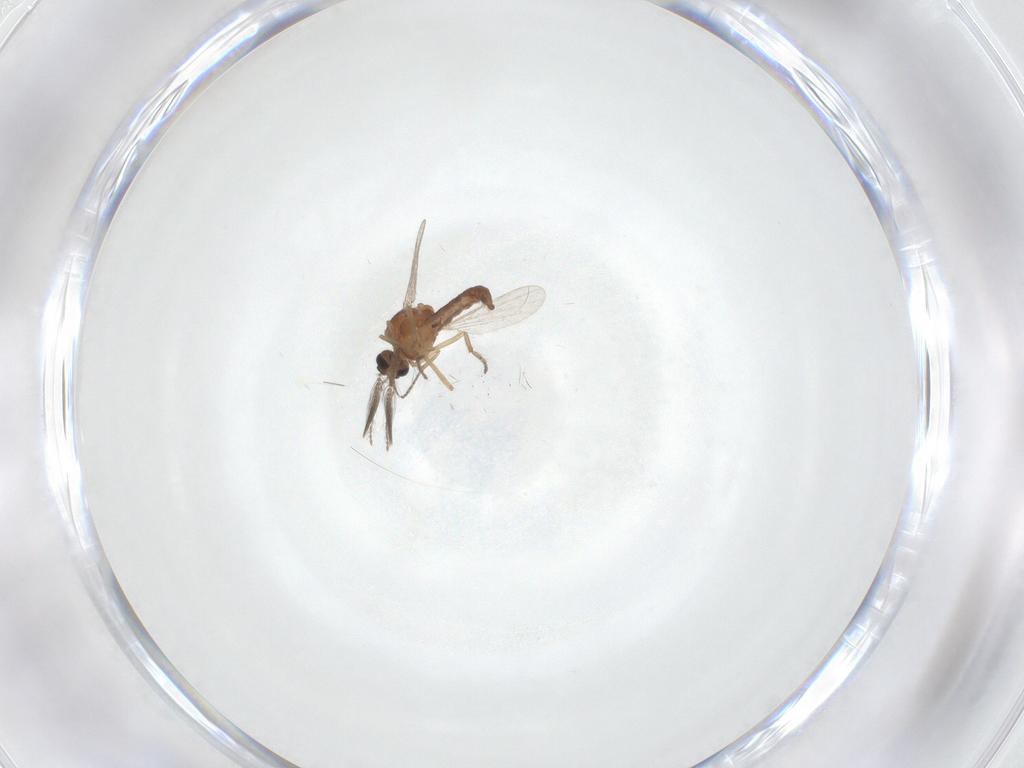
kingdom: Animalia
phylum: Arthropoda
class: Insecta
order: Diptera
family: Ceratopogonidae
